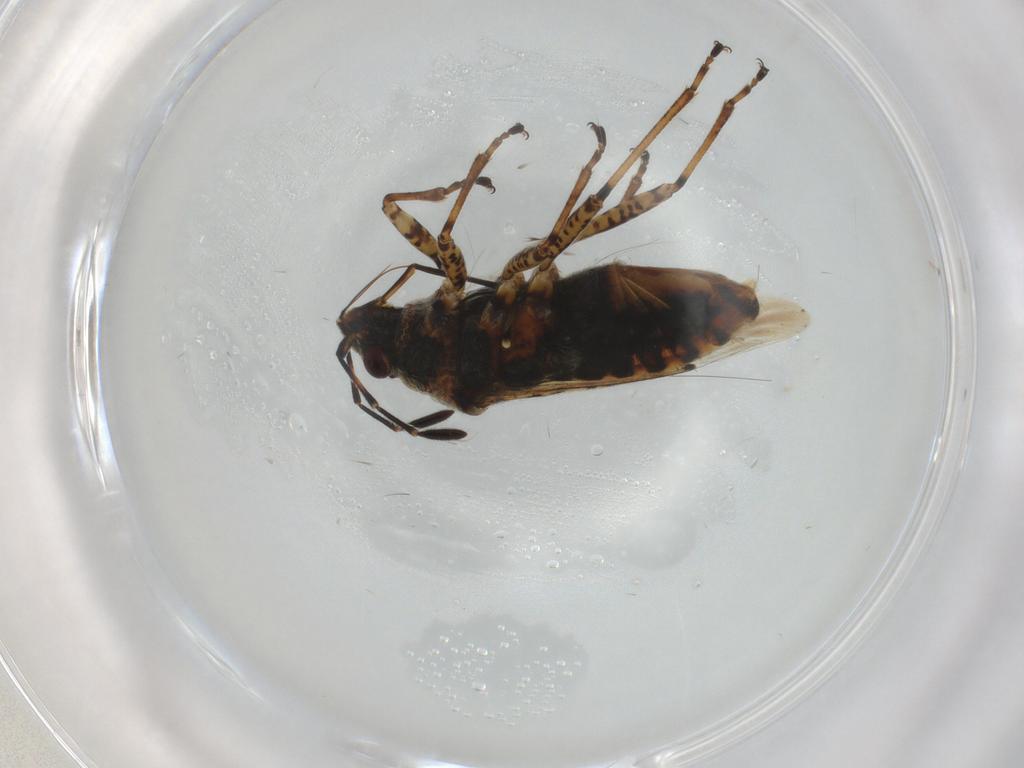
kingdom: Animalia
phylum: Arthropoda
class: Insecta
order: Hemiptera
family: Lygaeidae
